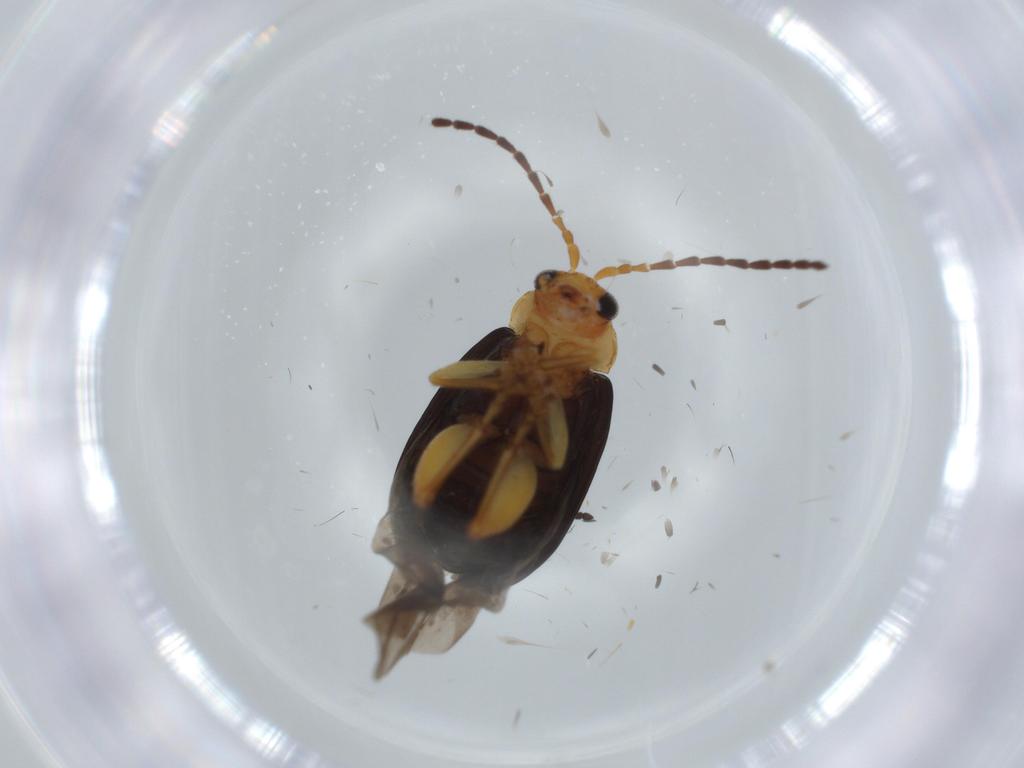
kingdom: Animalia
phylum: Arthropoda
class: Insecta
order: Coleoptera
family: Chrysomelidae
